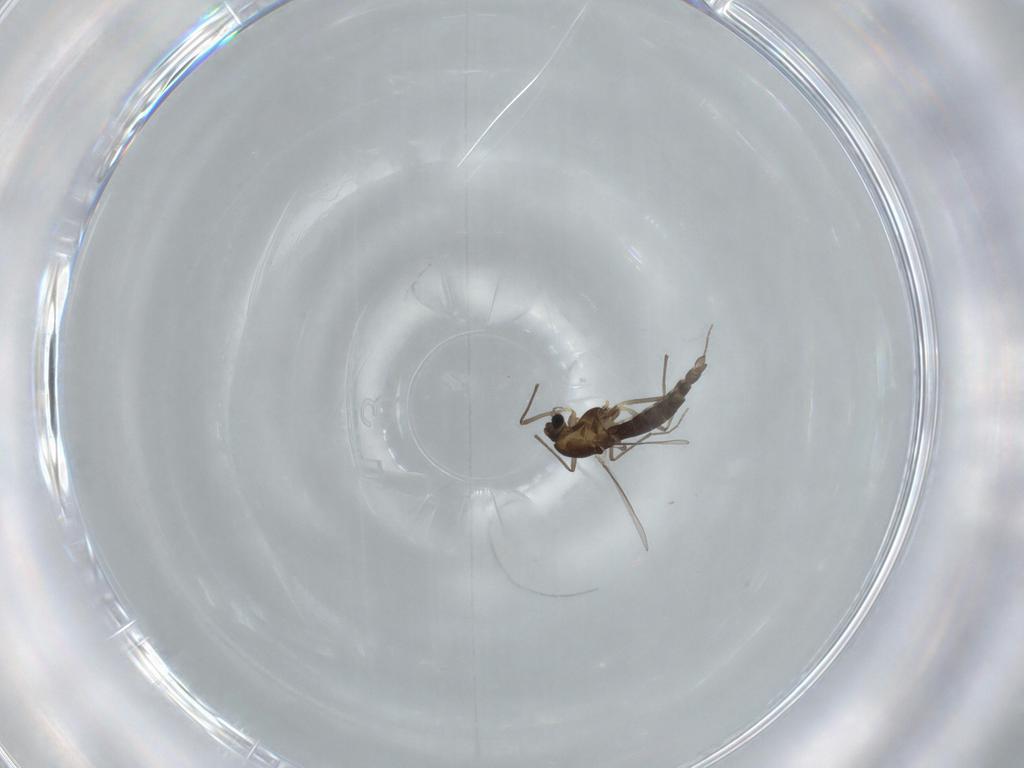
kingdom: Animalia
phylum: Arthropoda
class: Insecta
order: Diptera
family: Chironomidae
